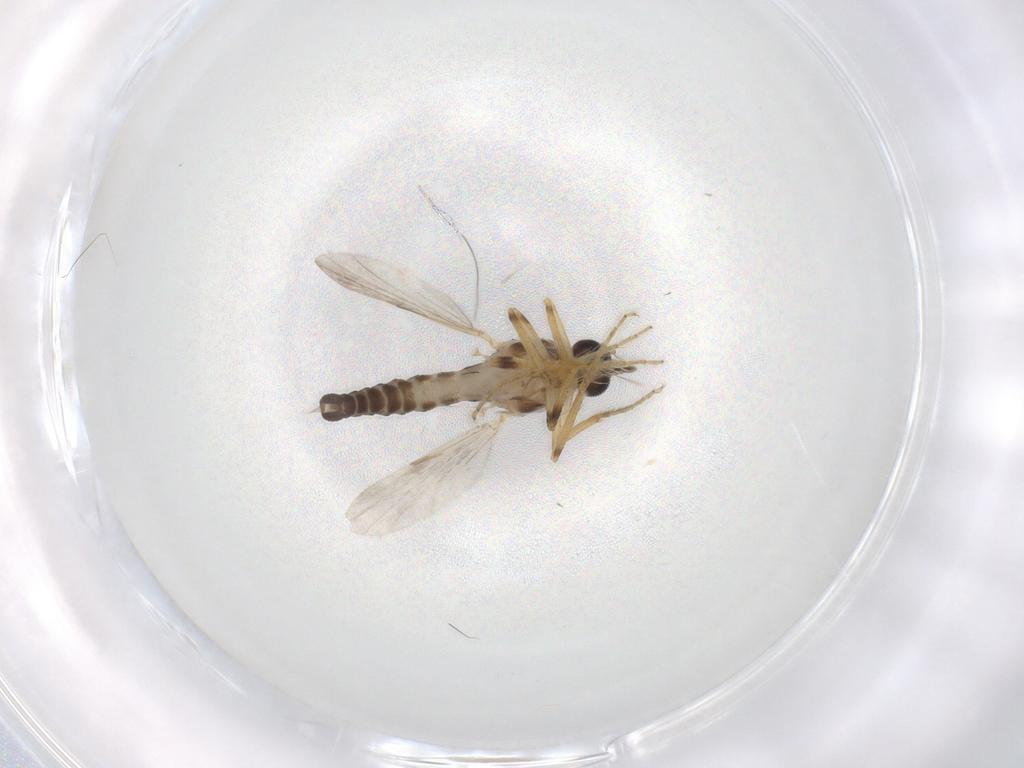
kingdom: Animalia
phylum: Arthropoda
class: Insecta
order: Diptera
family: Ceratopogonidae
